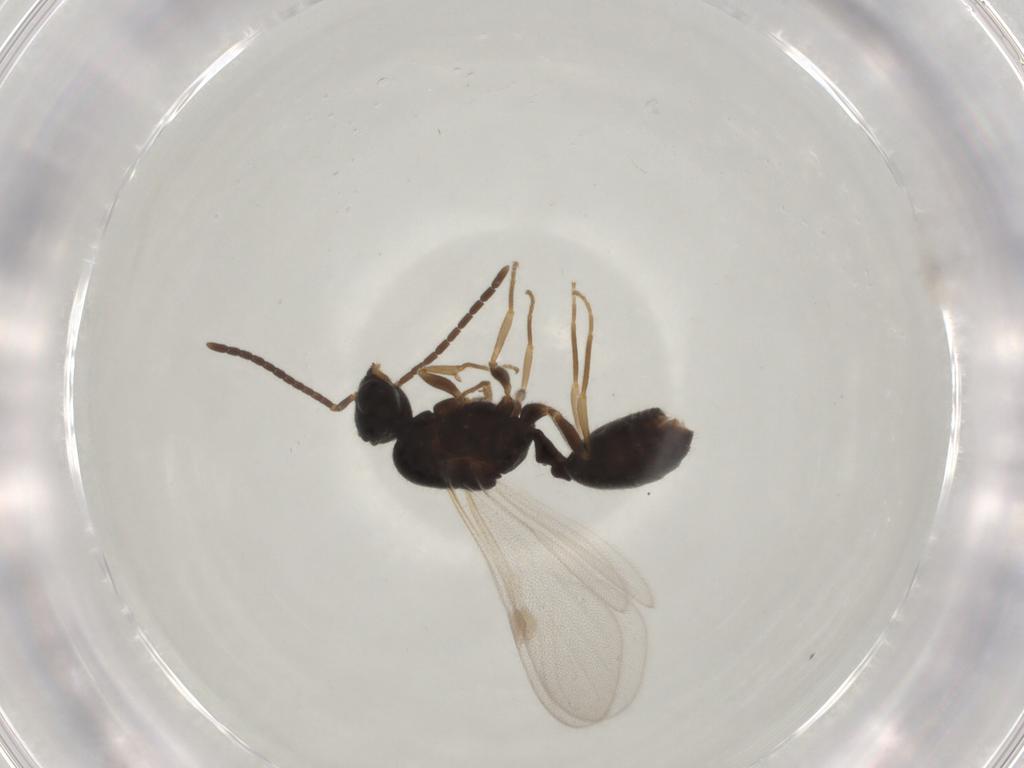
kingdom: Animalia
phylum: Arthropoda
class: Insecta
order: Hymenoptera
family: Formicidae
